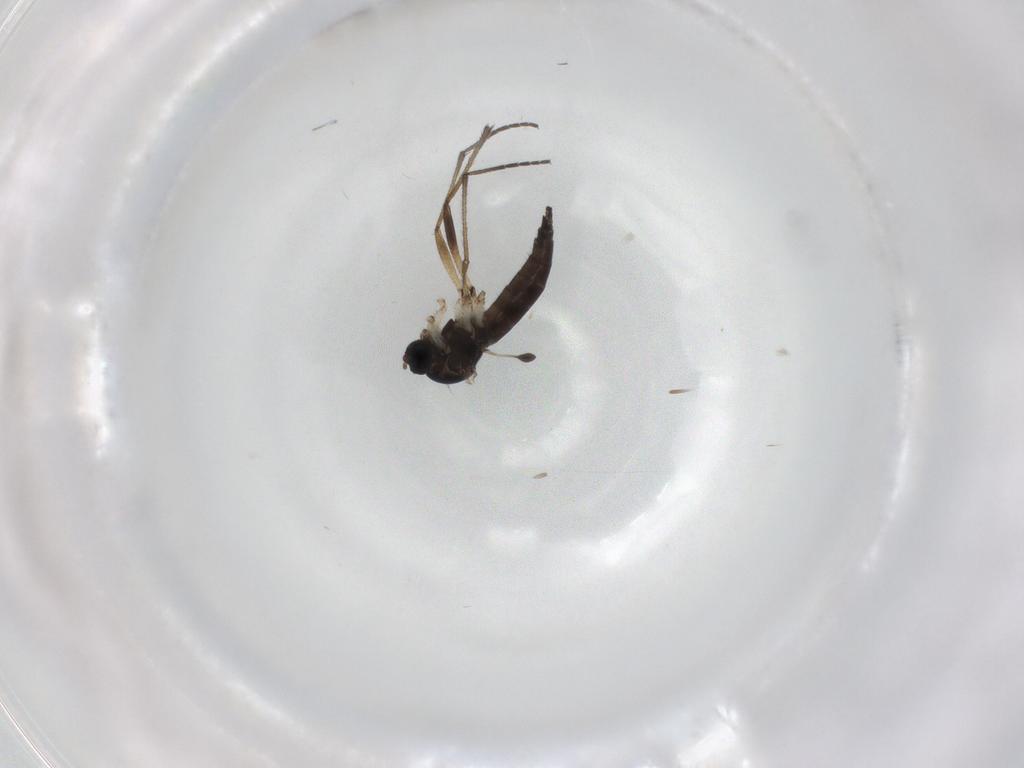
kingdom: Animalia
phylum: Arthropoda
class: Insecta
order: Diptera
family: Sciaridae
